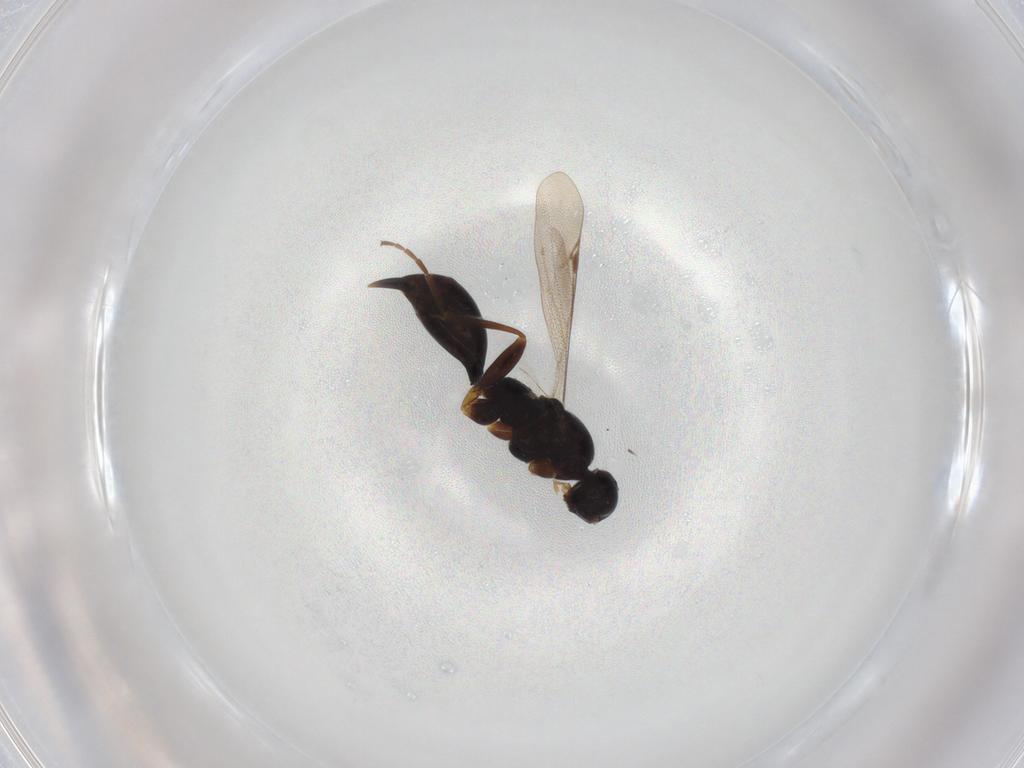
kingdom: Animalia
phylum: Arthropoda
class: Insecta
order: Hymenoptera
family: Proctotrupidae
